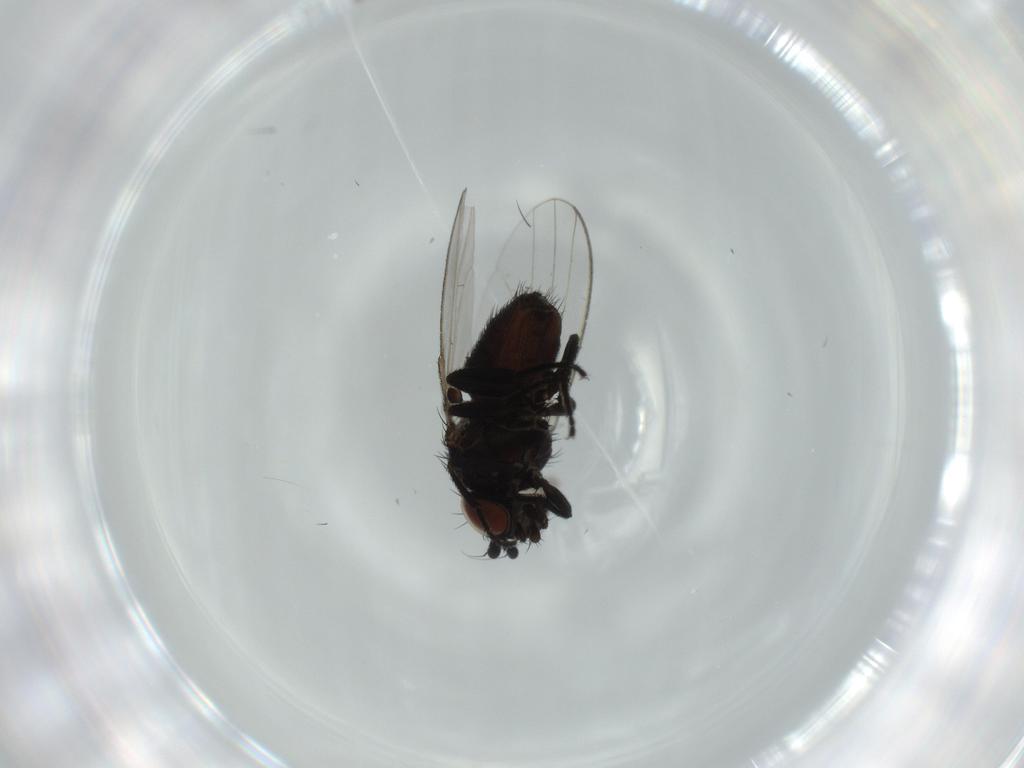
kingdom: Animalia
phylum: Arthropoda
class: Insecta
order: Diptera
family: Milichiidae
